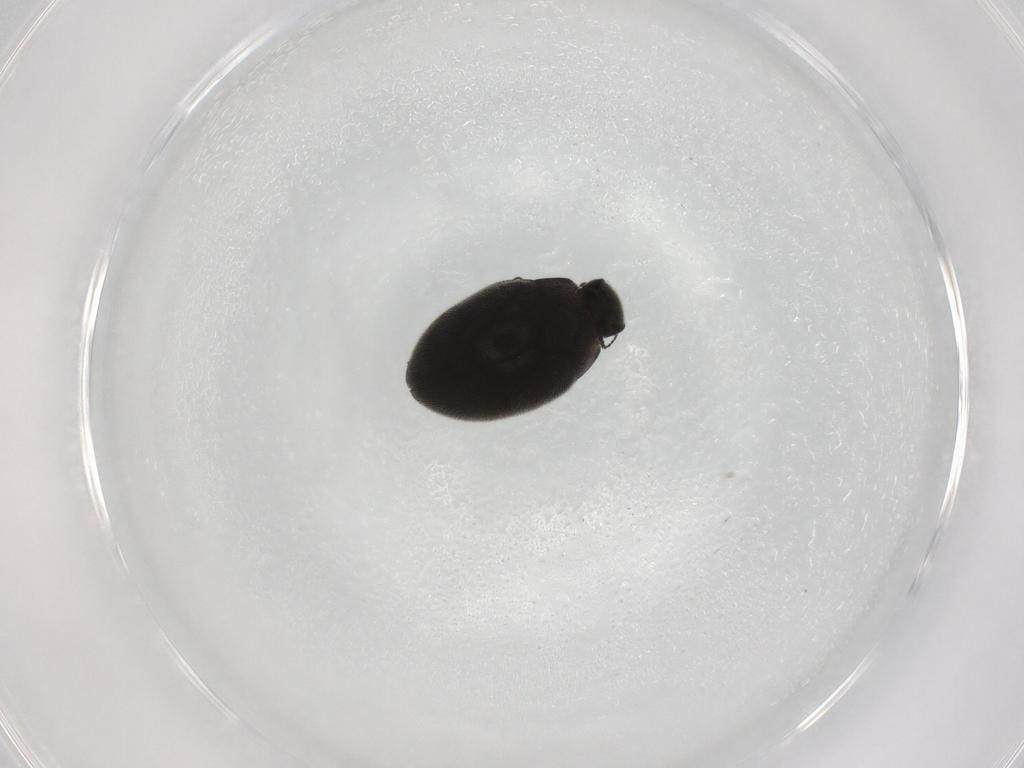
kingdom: Animalia
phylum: Arthropoda
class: Insecta
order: Coleoptera
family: Limnichidae
